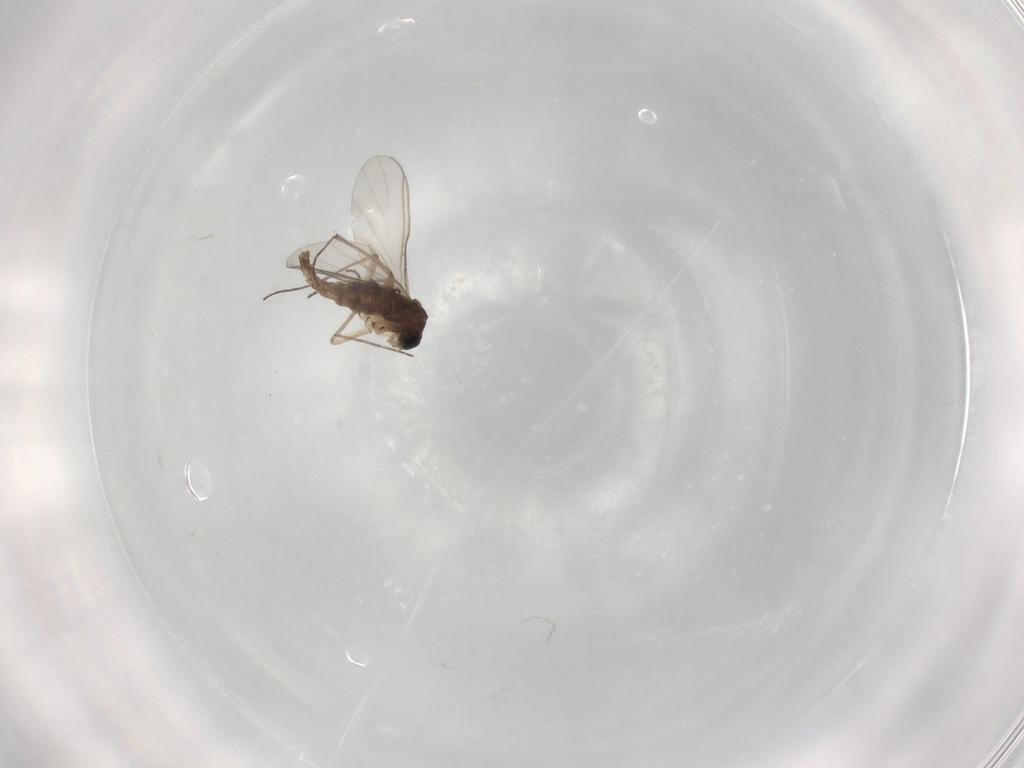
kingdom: Animalia
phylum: Arthropoda
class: Insecta
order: Diptera
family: Chironomidae
